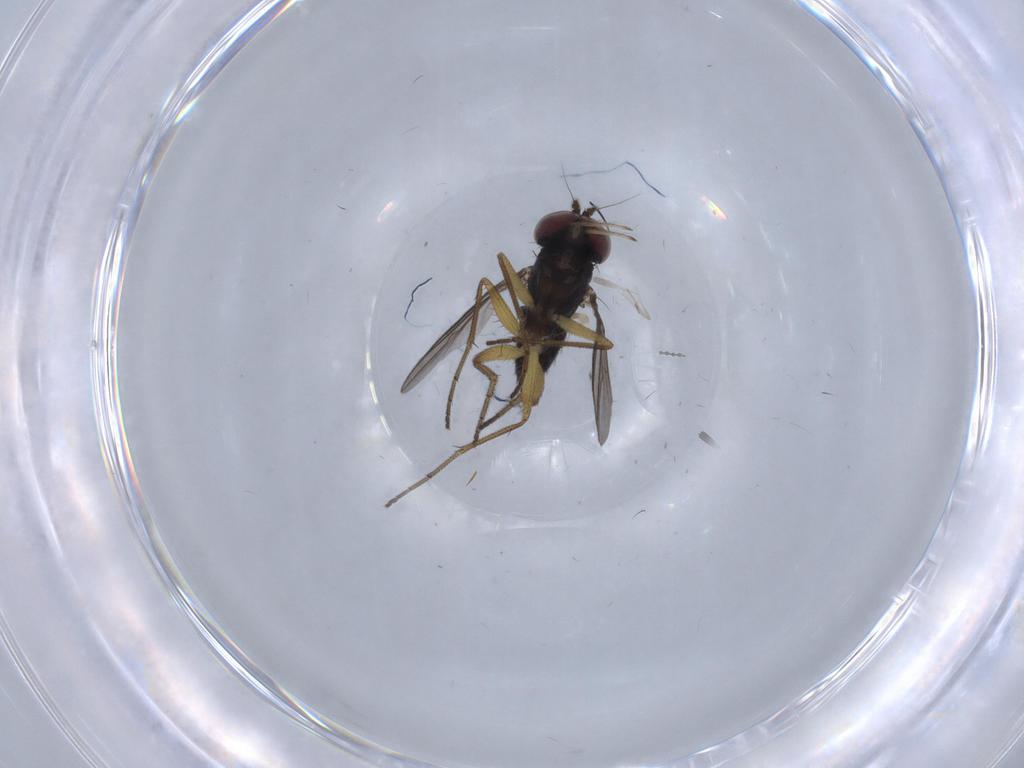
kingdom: Animalia
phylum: Arthropoda
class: Insecta
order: Diptera
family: Dolichopodidae
